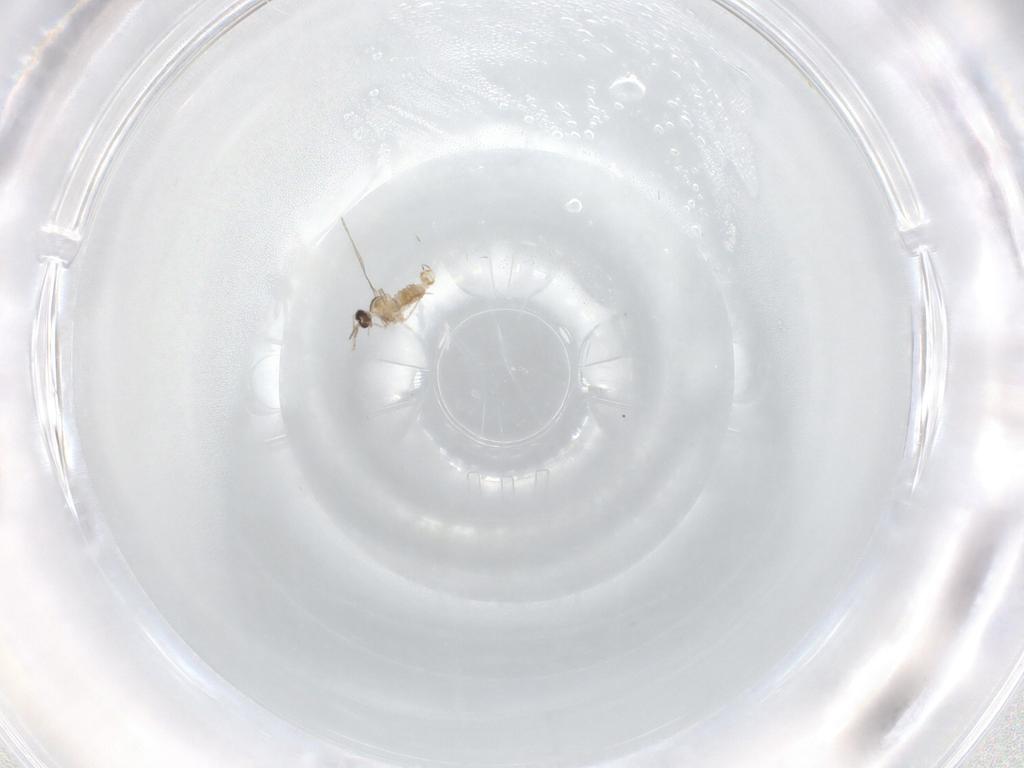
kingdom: Animalia
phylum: Arthropoda
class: Insecta
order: Diptera
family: Cecidomyiidae
